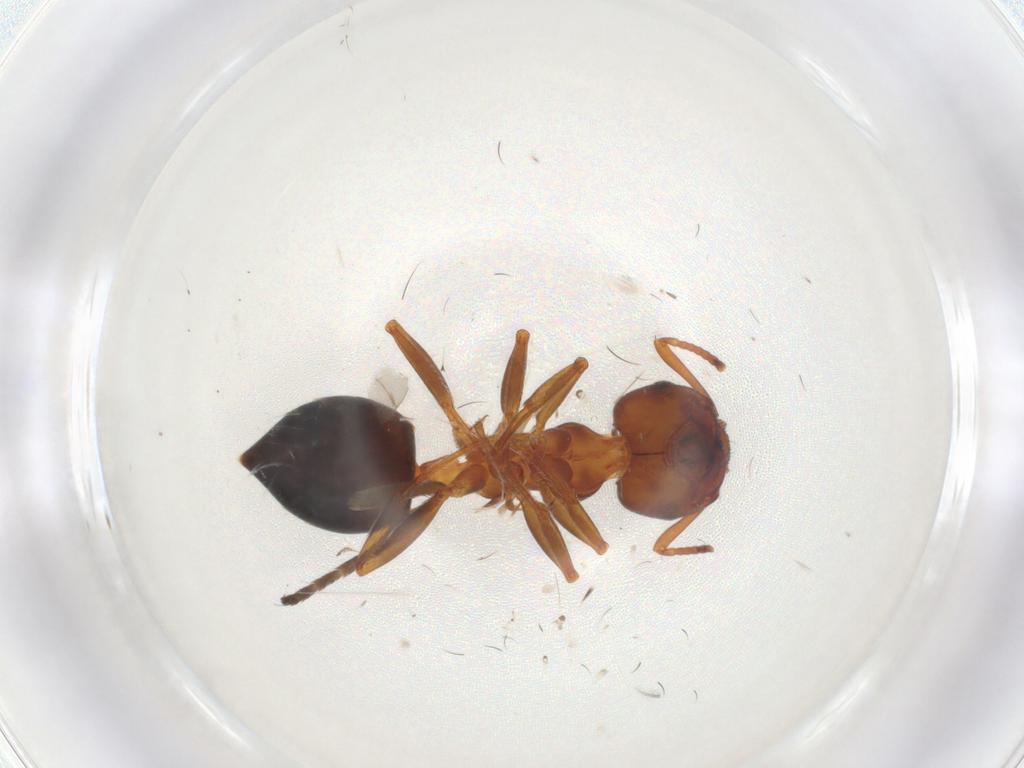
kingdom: Animalia
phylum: Arthropoda
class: Insecta
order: Hymenoptera
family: Formicidae
